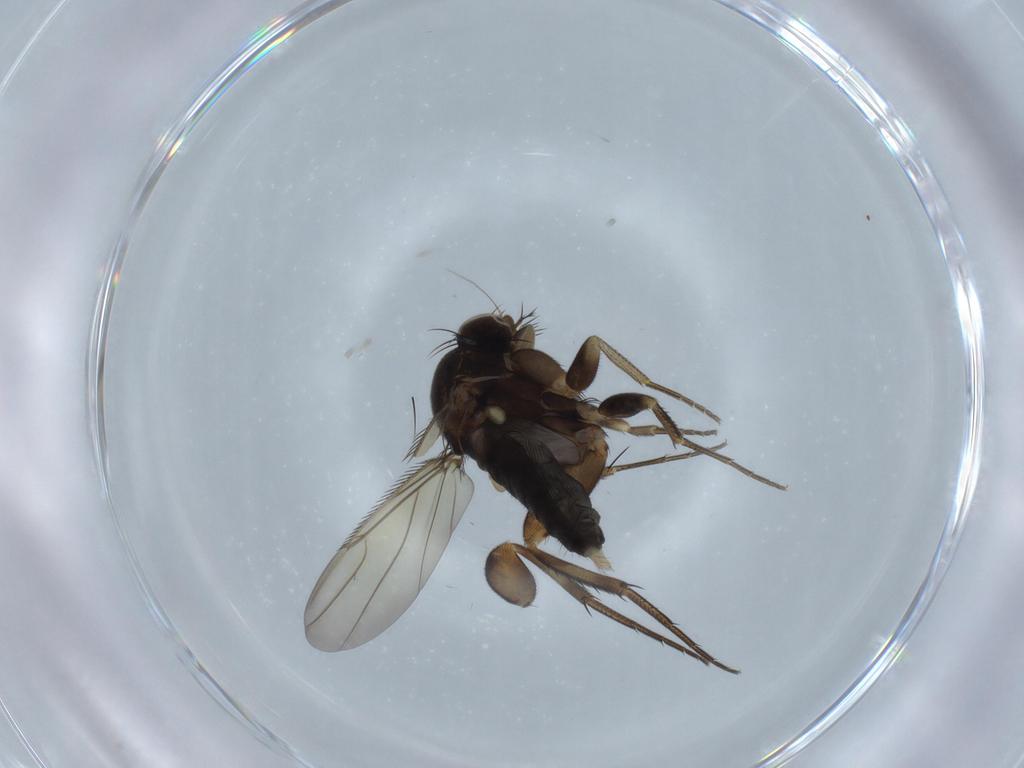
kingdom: Animalia
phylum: Arthropoda
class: Insecta
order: Diptera
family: Phoridae
